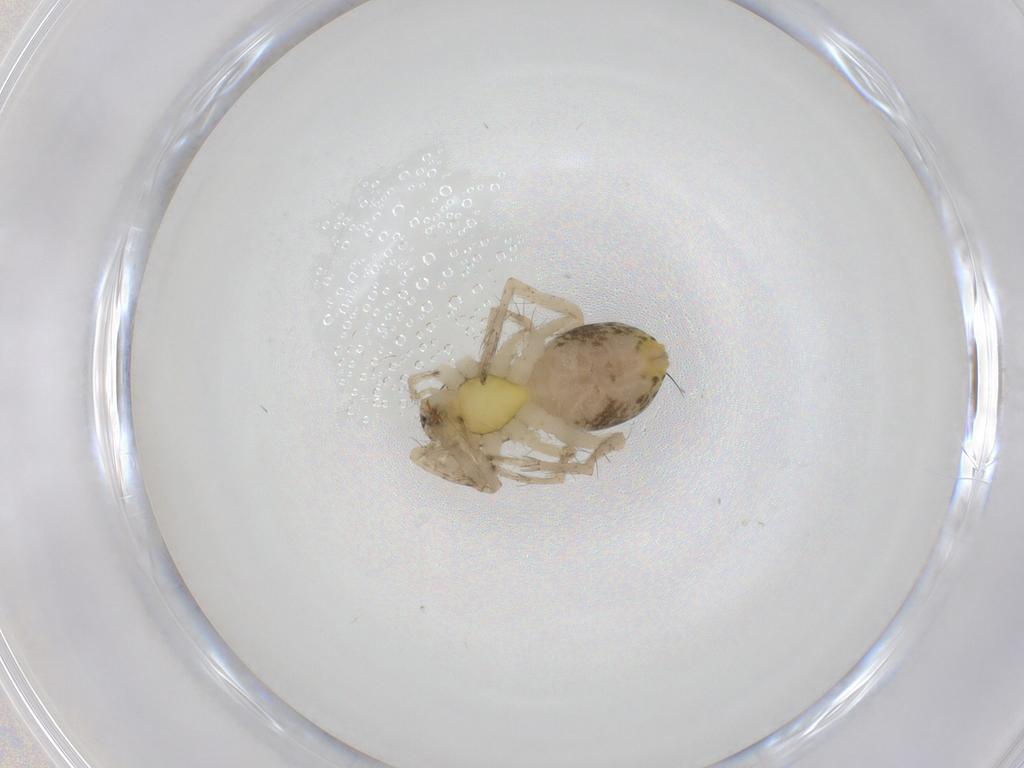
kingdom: Animalia
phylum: Arthropoda
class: Arachnida
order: Araneae
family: Anyphaenidae
